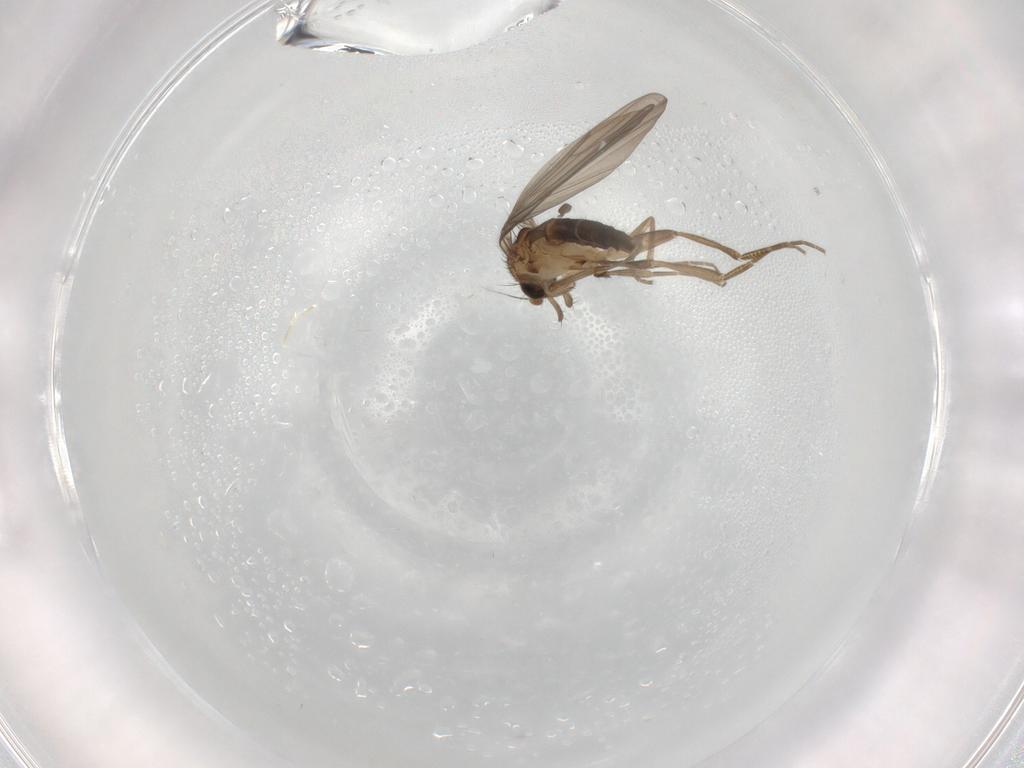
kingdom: Animalia
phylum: Arthropoda
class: Insecta
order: Diptera
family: Phoridae
